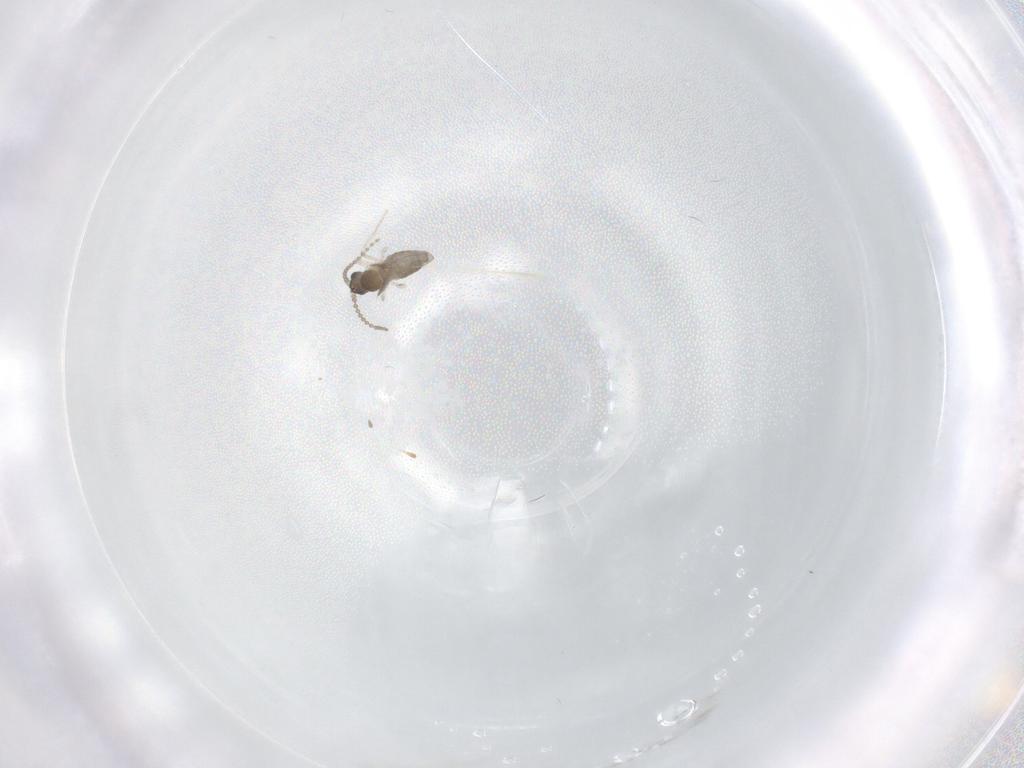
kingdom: Animalia
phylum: Arthropoda
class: Insecta
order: Diptera
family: Cecidomyiidae
